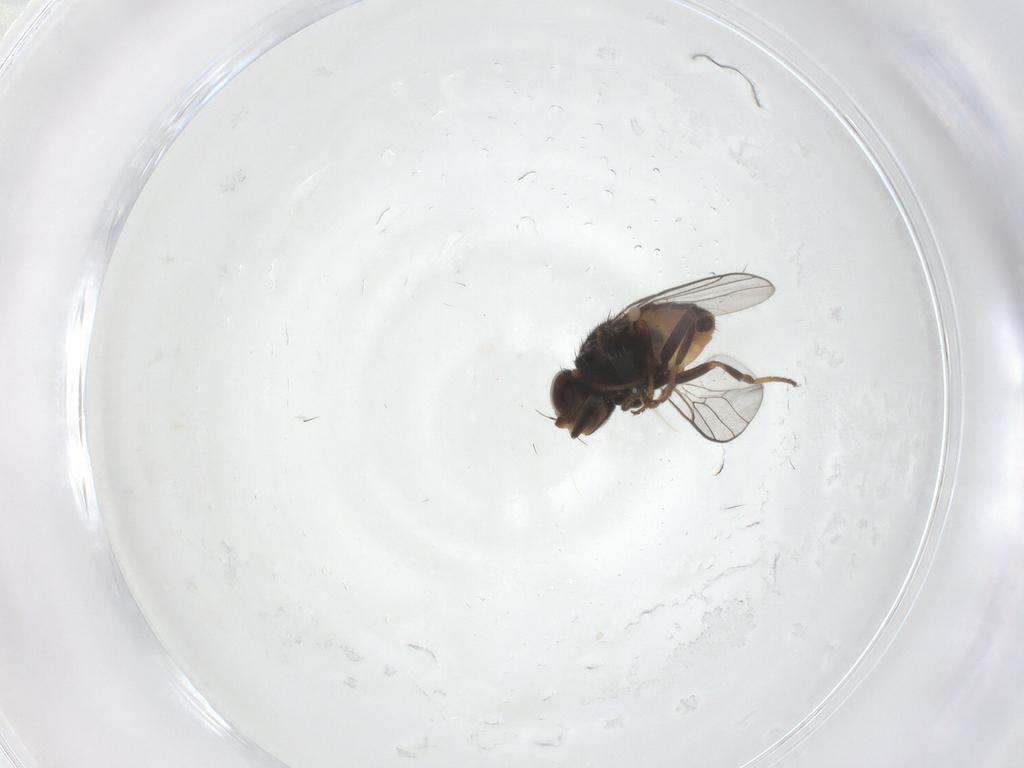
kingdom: Animalia
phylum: Arthropoda
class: Insecta
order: Diptera
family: Chloropidae
